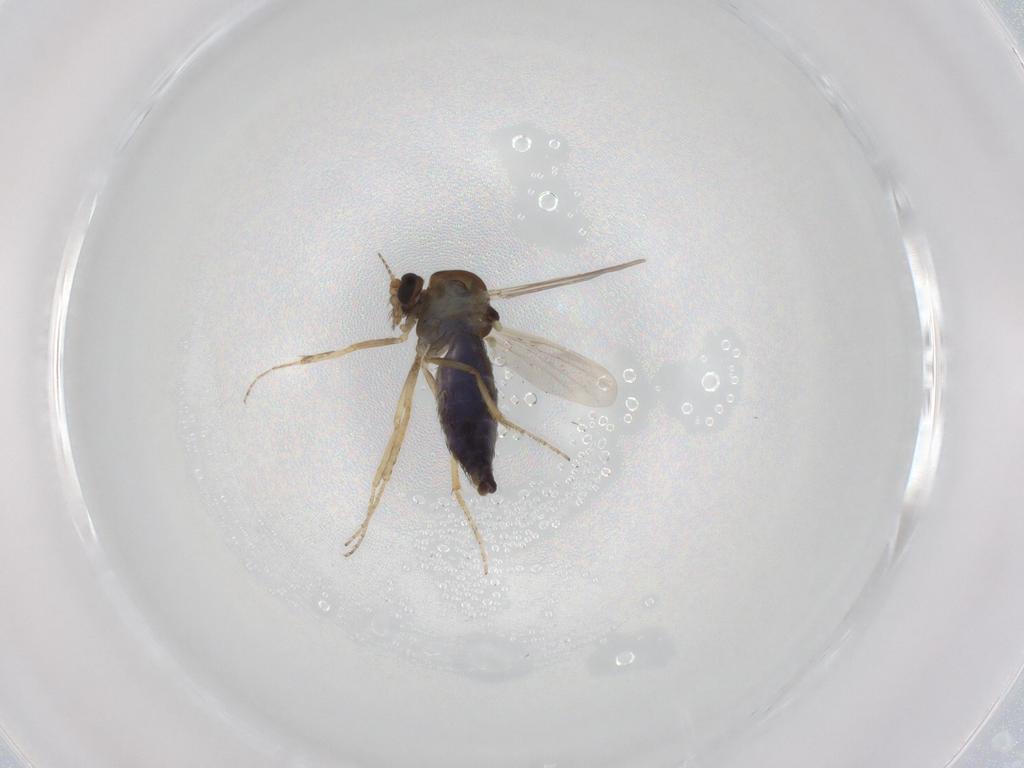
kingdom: Animalia
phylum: Arthropoda
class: Insecta
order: Diptera
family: Ceratopogonidae
